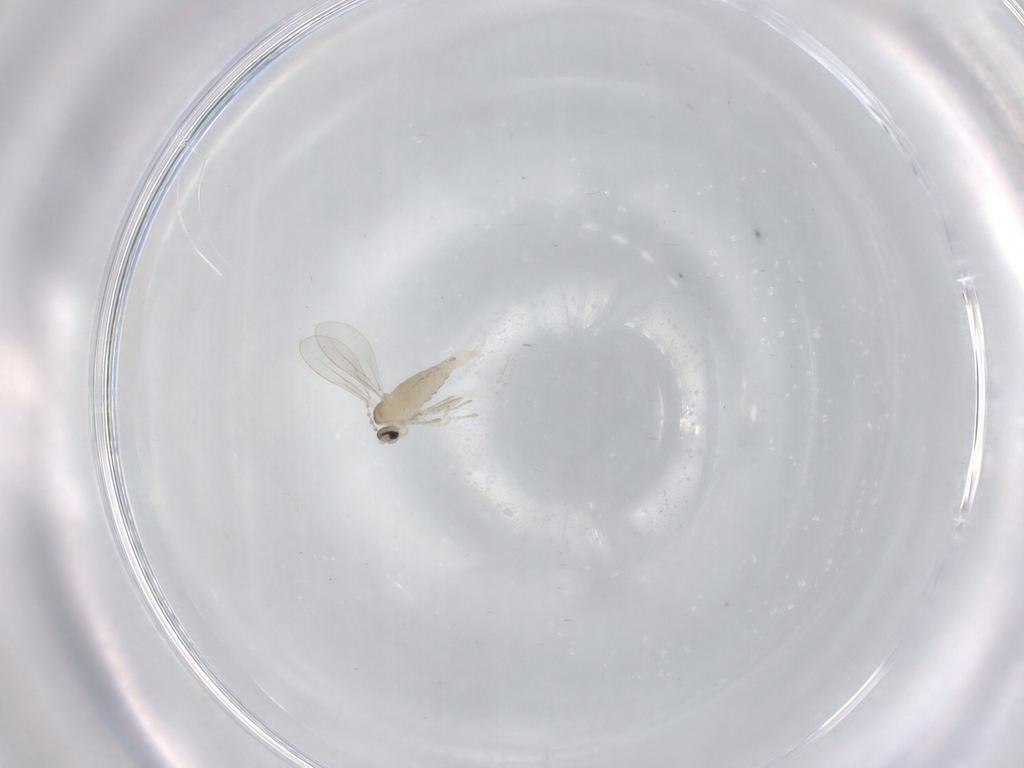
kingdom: Animalia
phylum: Arthropoda
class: Insecta
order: Diptera
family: Cecidomyiidae
